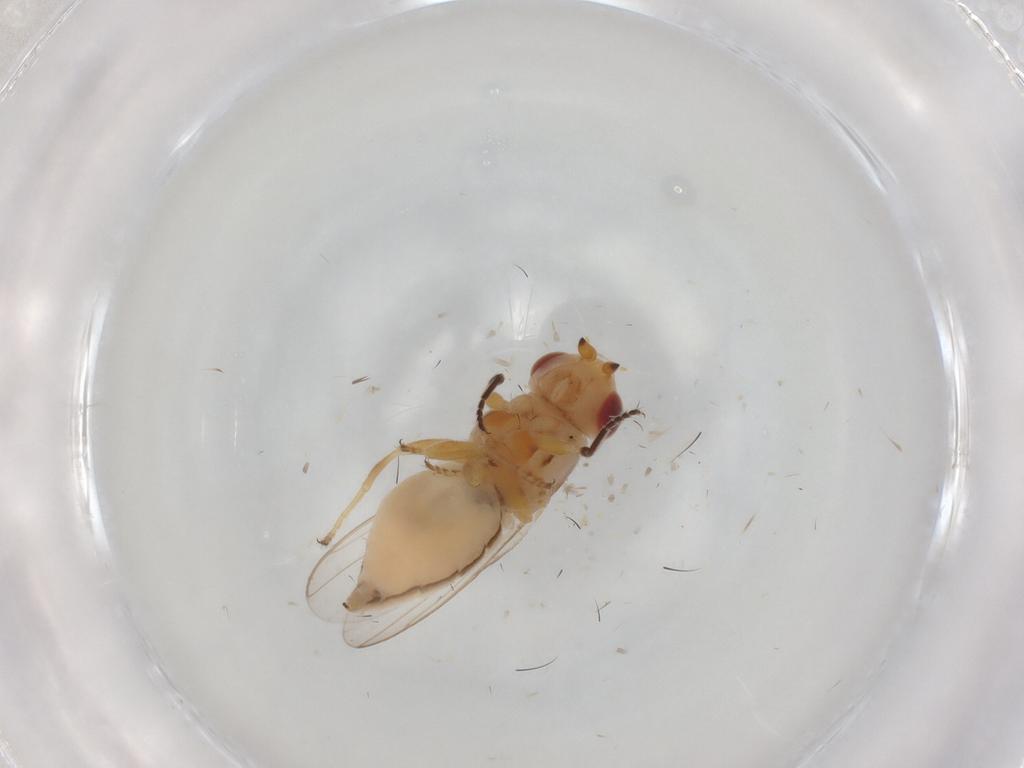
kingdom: Animalia
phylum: Arthropoda
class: Insecta
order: Diptera
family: Chloropidae
